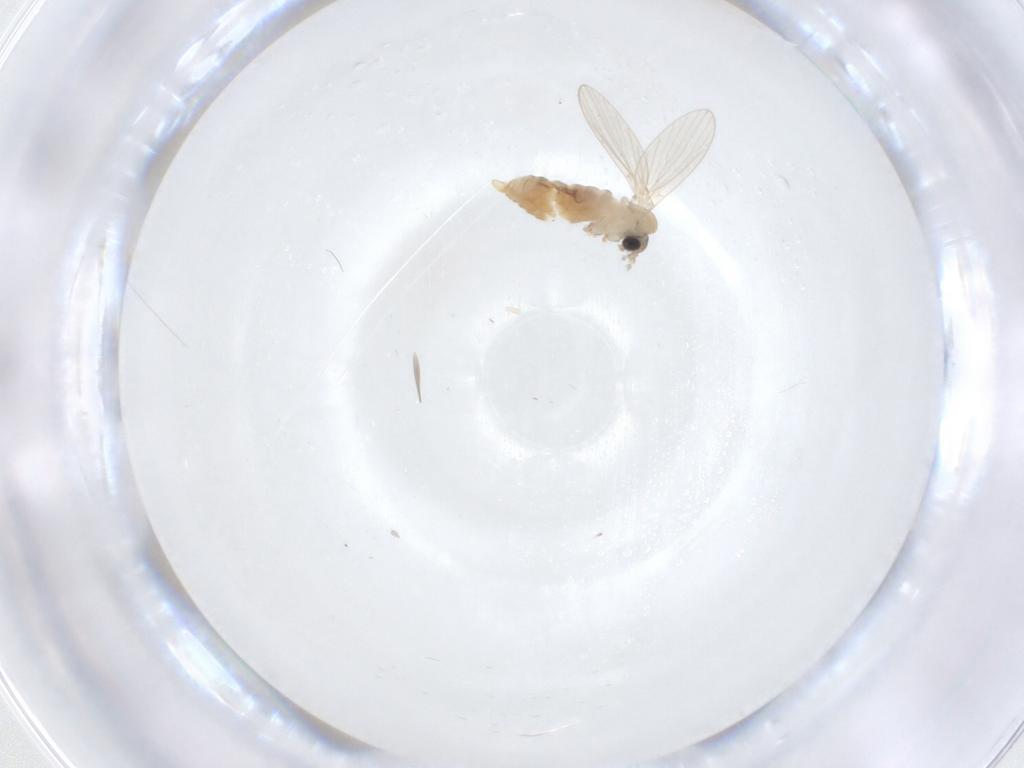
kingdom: Animalia
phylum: Arthropoda
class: Insecta
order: Diptera
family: Psychodidae
